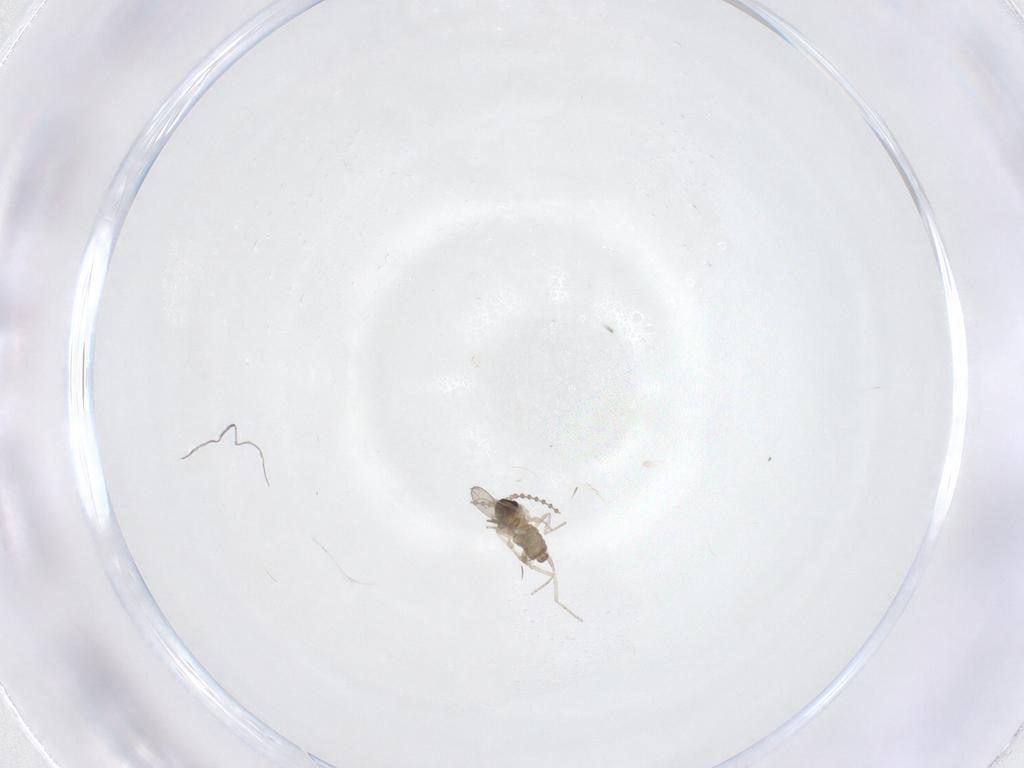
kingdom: Animalia
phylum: Arthropoda
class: Insecta
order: Diptera
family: Cecidomyiidae
